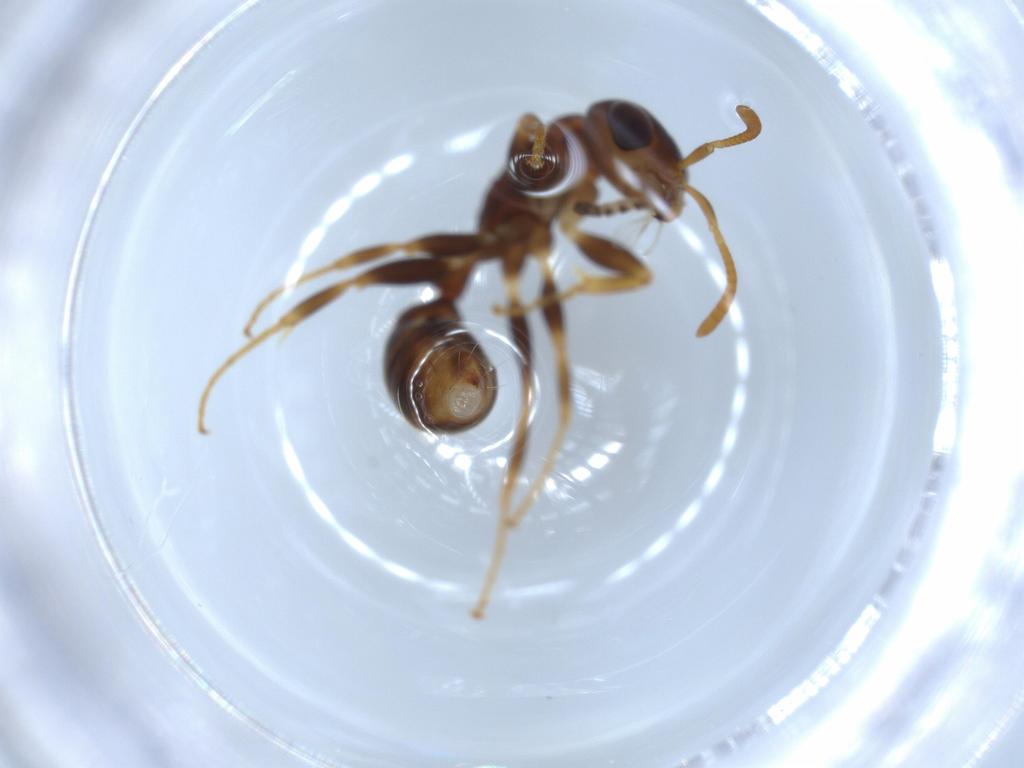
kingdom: Animalia
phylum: Arthropoda
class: Insecta
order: Hymenoptera
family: Formicidae
